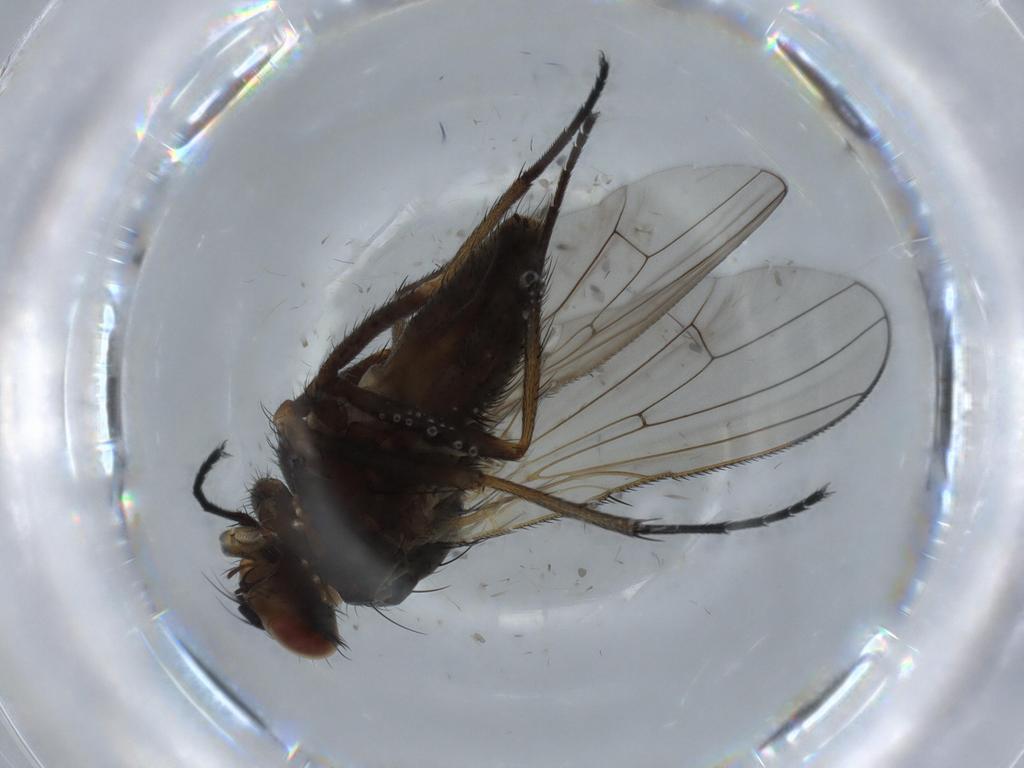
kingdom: Animalia
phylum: Arthropoda
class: Insecta
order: Diptera
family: Anthomyiidae
